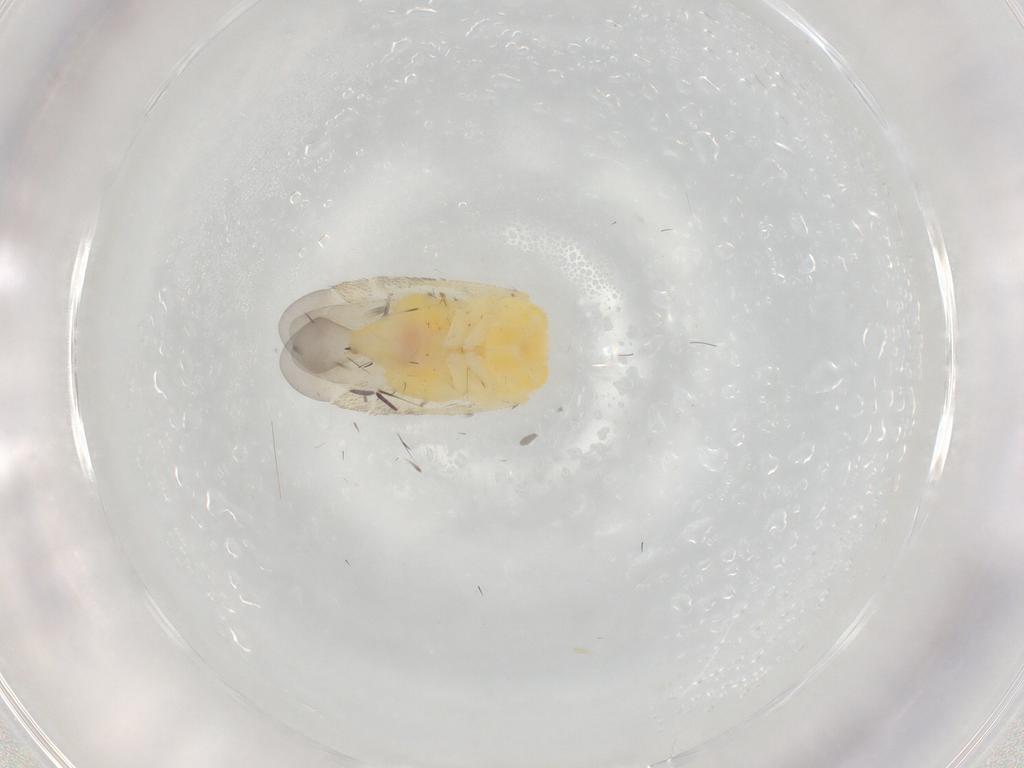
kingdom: Animalia
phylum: Arthropoda
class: Insecta
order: Hemiptera
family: Miridae
